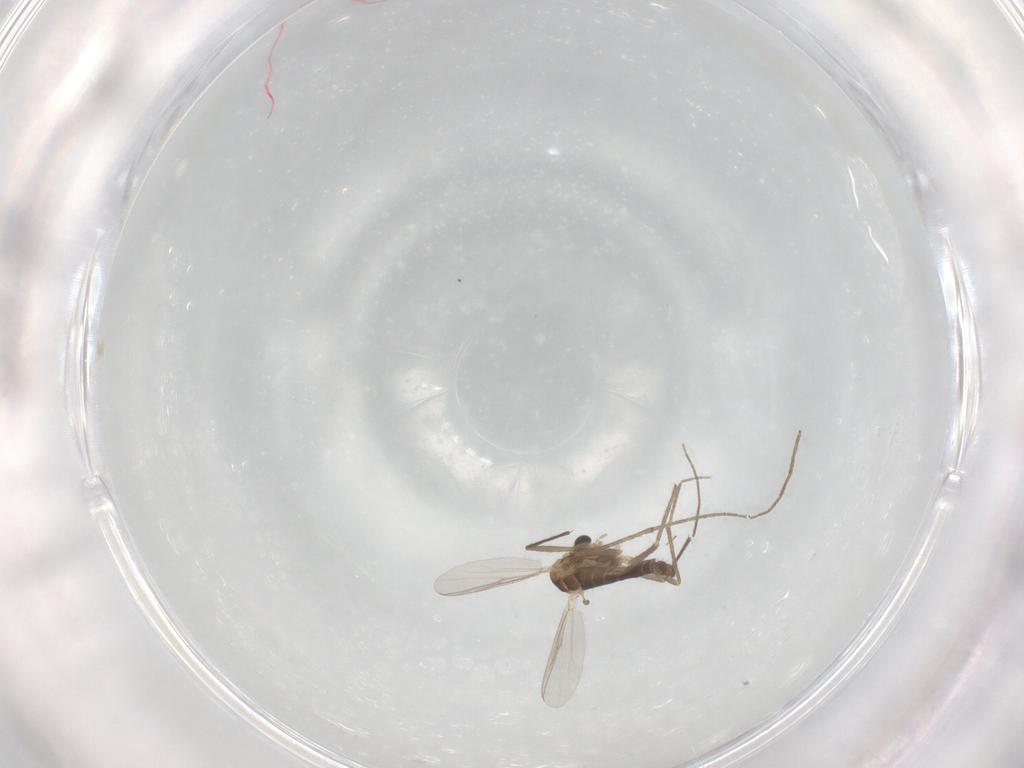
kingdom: Animalia
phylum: Arthropoda
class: Insecta
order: Diptera
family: Chironomidae
